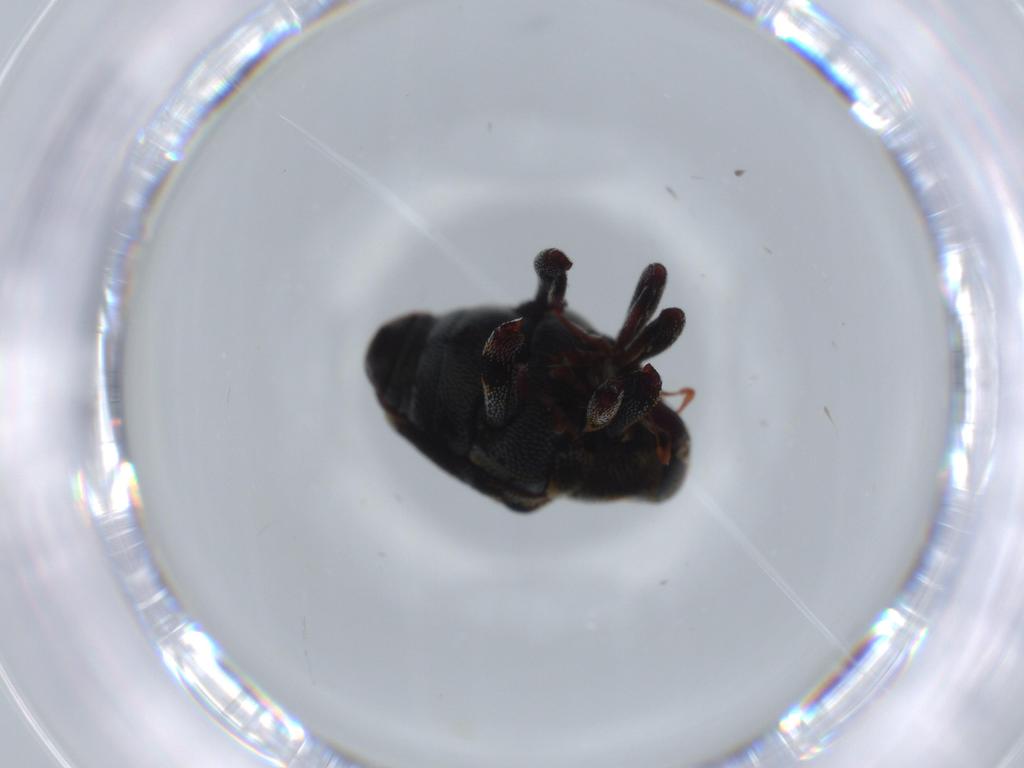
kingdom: Animalia
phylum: Arthropoda
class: Insecta
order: Coleoptera
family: Curculionidae
